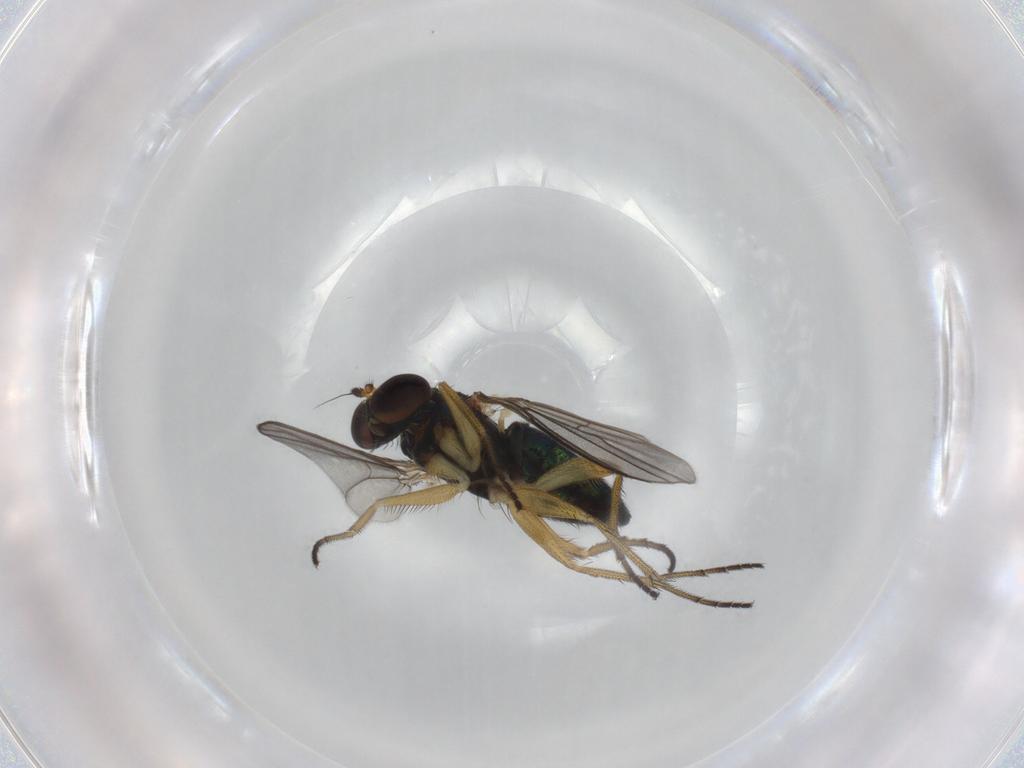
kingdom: Animalia
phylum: Arthropoda
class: Insecta
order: Diptera
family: Dolichopodidae
